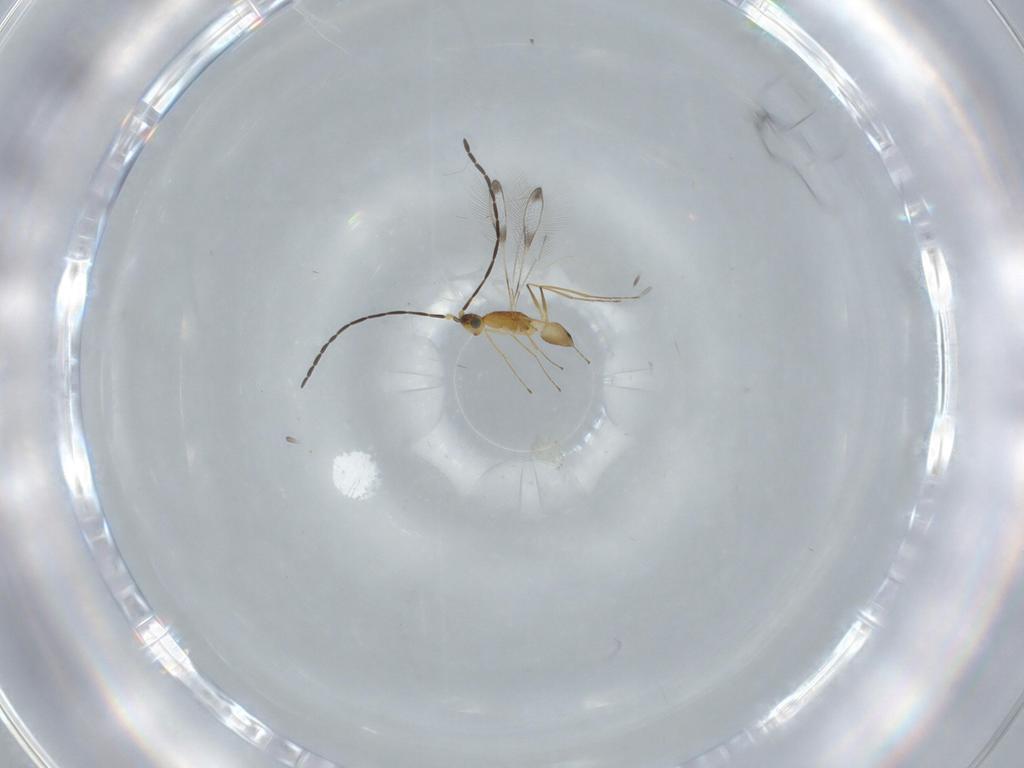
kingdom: Animalia
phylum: Arthropoda
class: Insecta
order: Hymenoptera
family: Mymaridae
